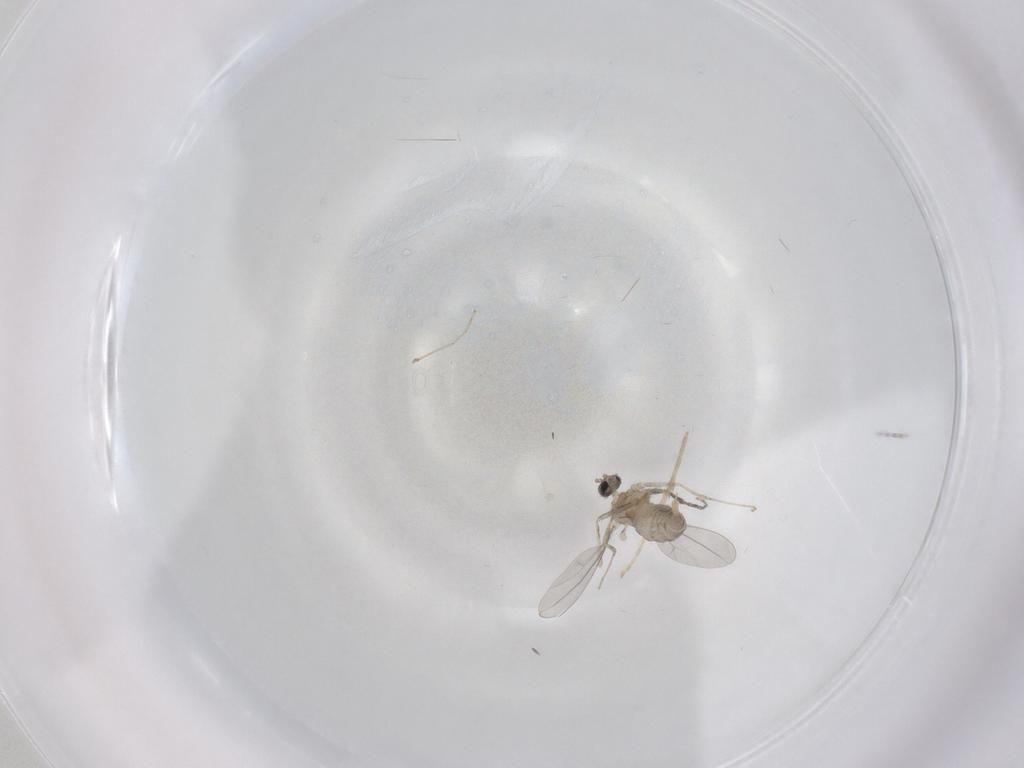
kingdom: Animalia
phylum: Arthropoda
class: Insecta
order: Diptera
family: Cecidomyiidae
